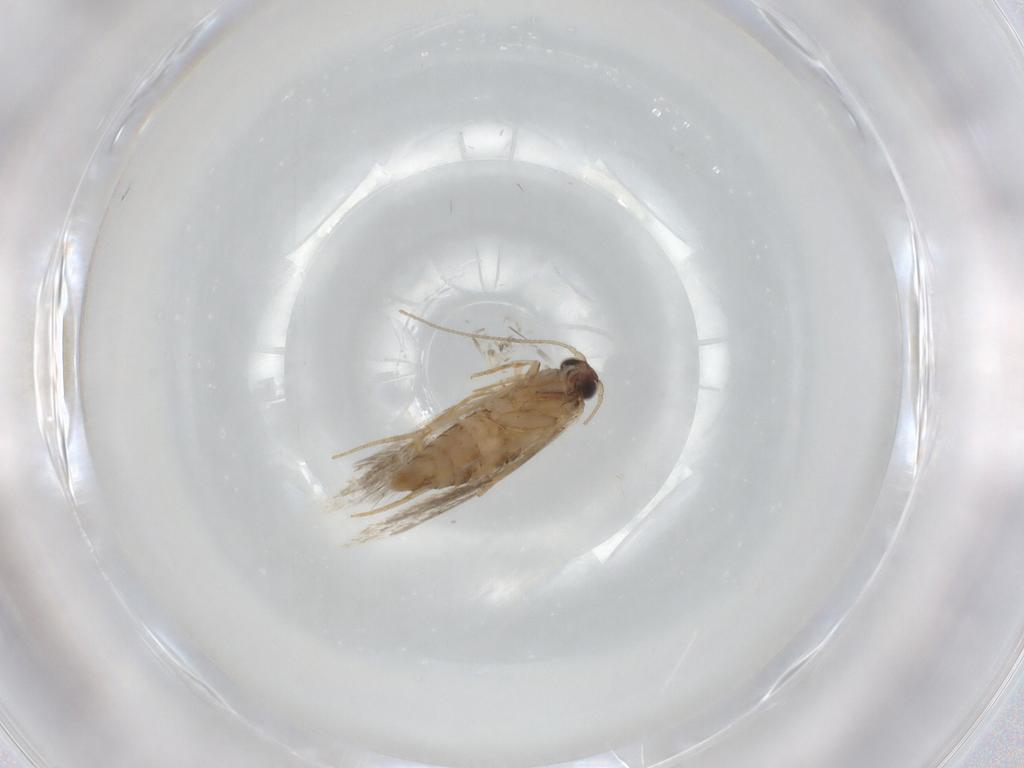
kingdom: Animalia
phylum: Arthropoda
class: Insecta
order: Lepidoptera
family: Tineidae
